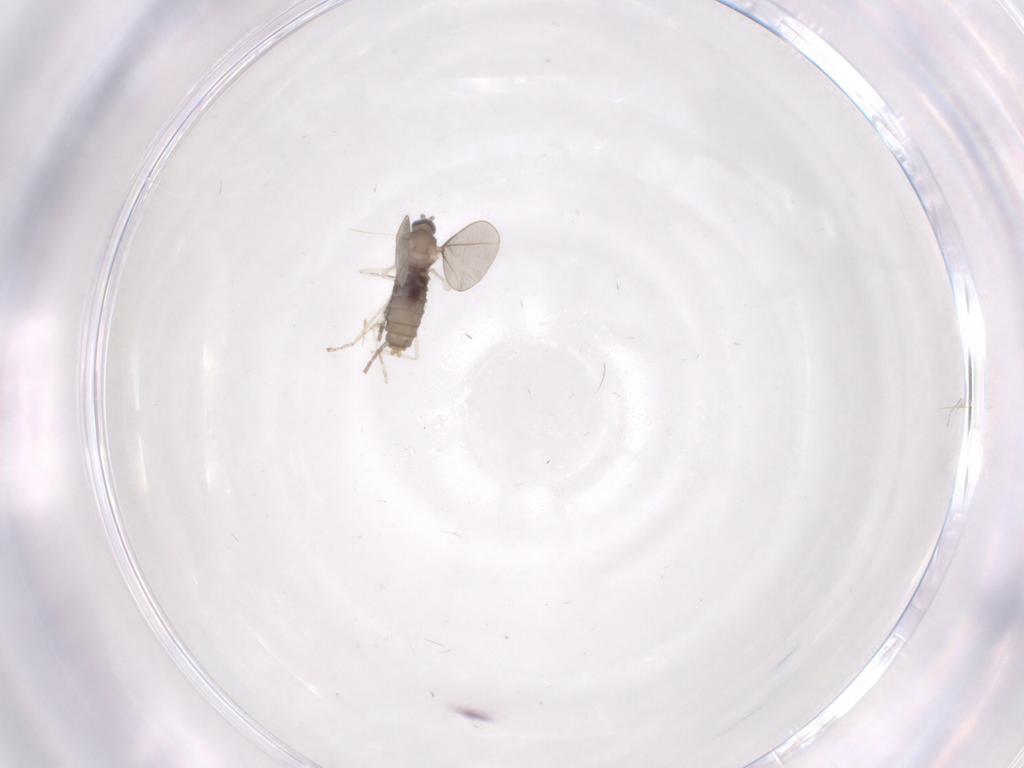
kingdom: Animalia
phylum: Arthropoda
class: Insecta
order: Diptera
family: Cecidomyiidae
